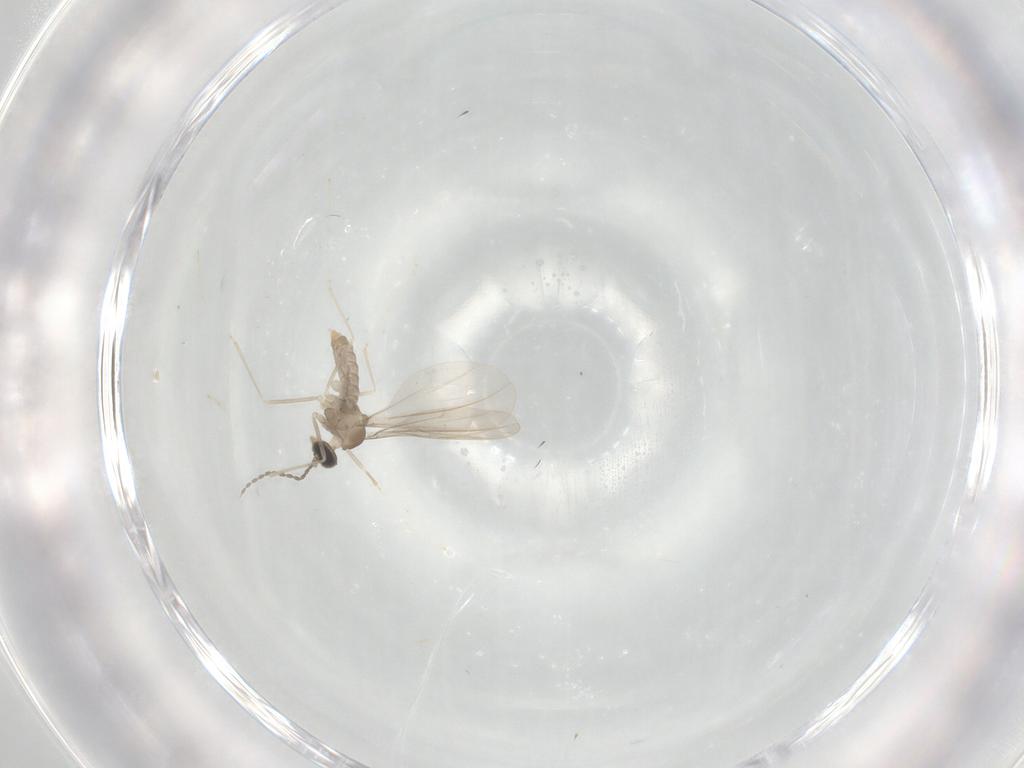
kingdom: Animalia
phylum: Arthropoda
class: Insecta
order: Diptera
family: Cecidomyiidae
